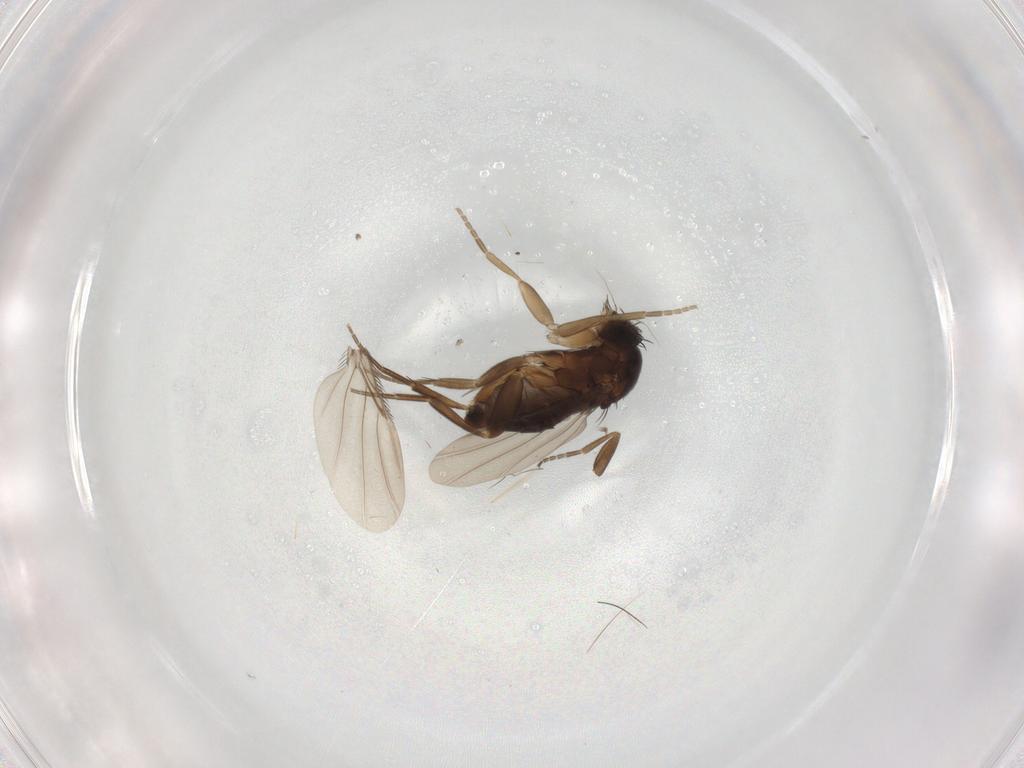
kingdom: Animalia
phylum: Arthropoda
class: Insecta
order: Diptera
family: Phoridae
